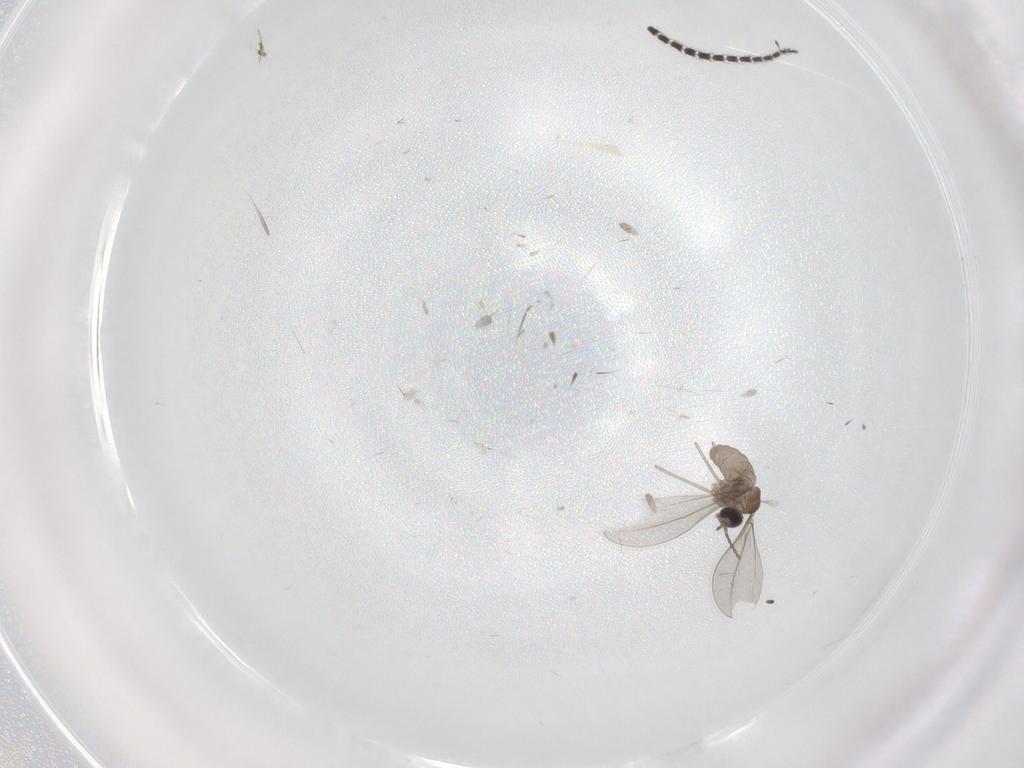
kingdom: Animalia
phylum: Arthropoda
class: Insecta
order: Diptera
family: Cecidomyiidae
